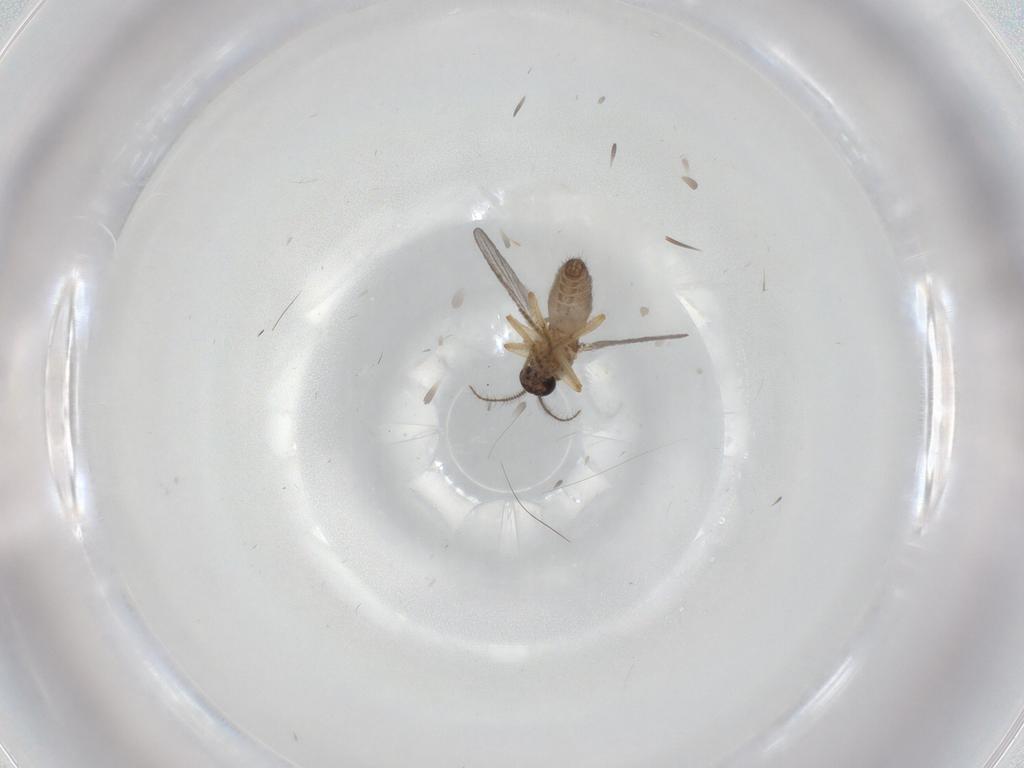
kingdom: Animalia
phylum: Arthropoda
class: Insecta
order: Diptera
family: Ceratopogonidae
